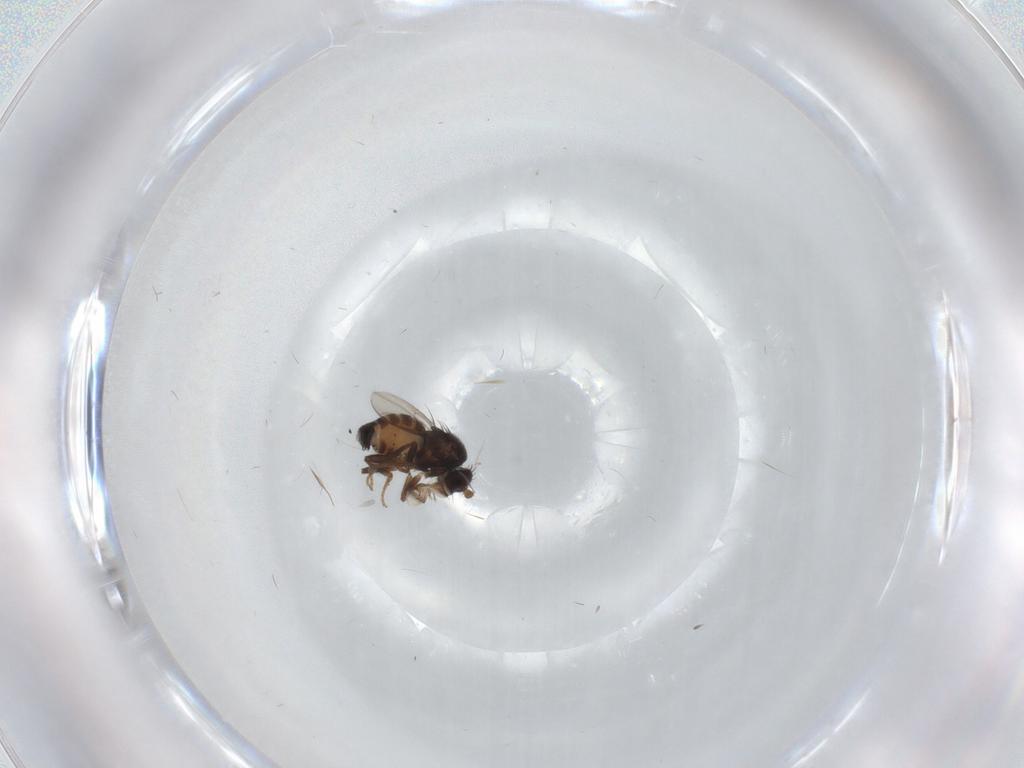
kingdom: Animalia
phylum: Arthropoda
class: Insecta
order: Diptera
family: Sphaeroceridae
